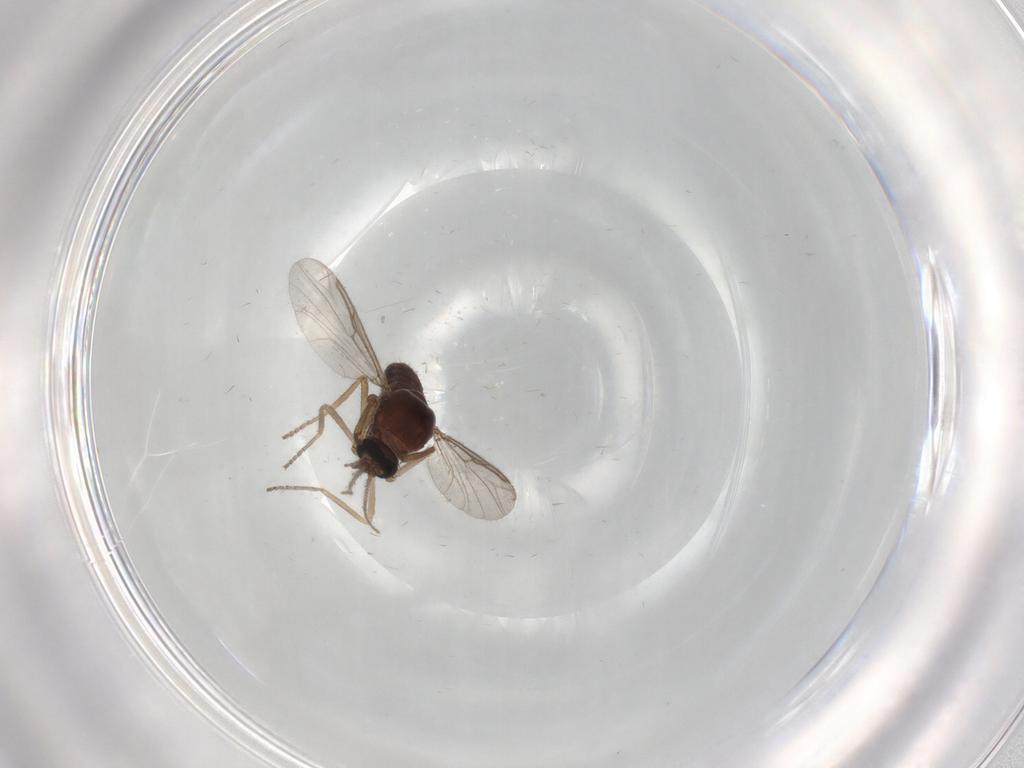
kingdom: Animalia
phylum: Arthropoda
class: Insecta
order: Diptera
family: Ceratopogonidae
